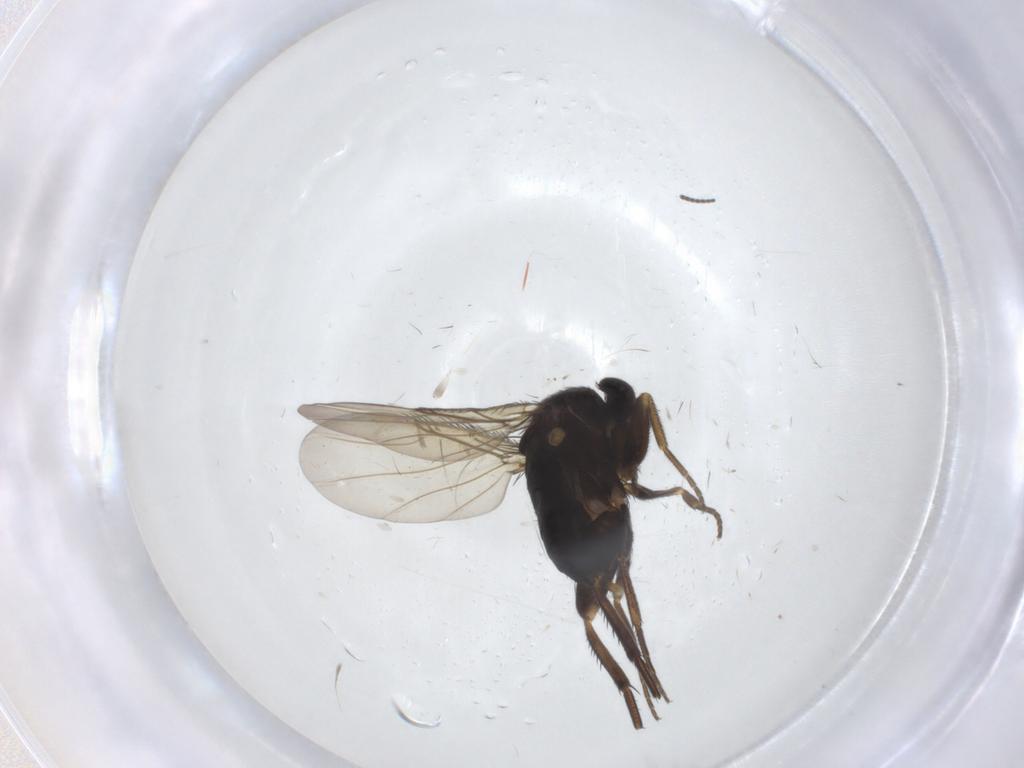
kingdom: Animalia
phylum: Arthropoda
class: Insecta
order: Diptera
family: Phoridae
